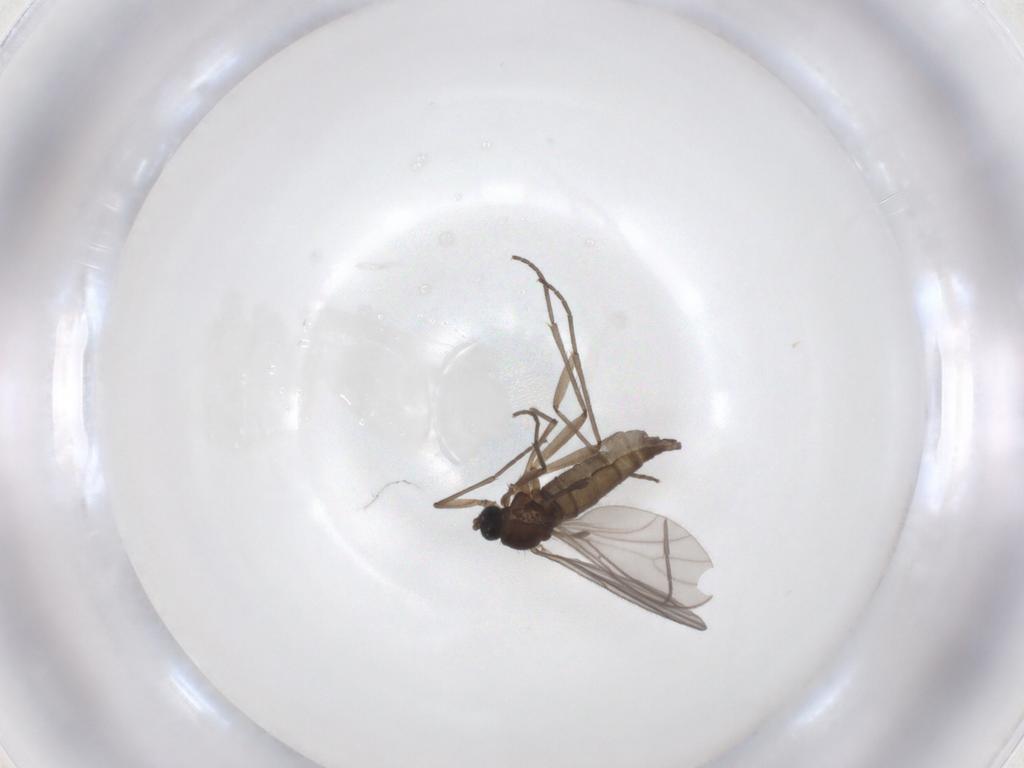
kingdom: Animalia
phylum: Arthropoda
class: Insecta
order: Diptera
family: Sciaridae
